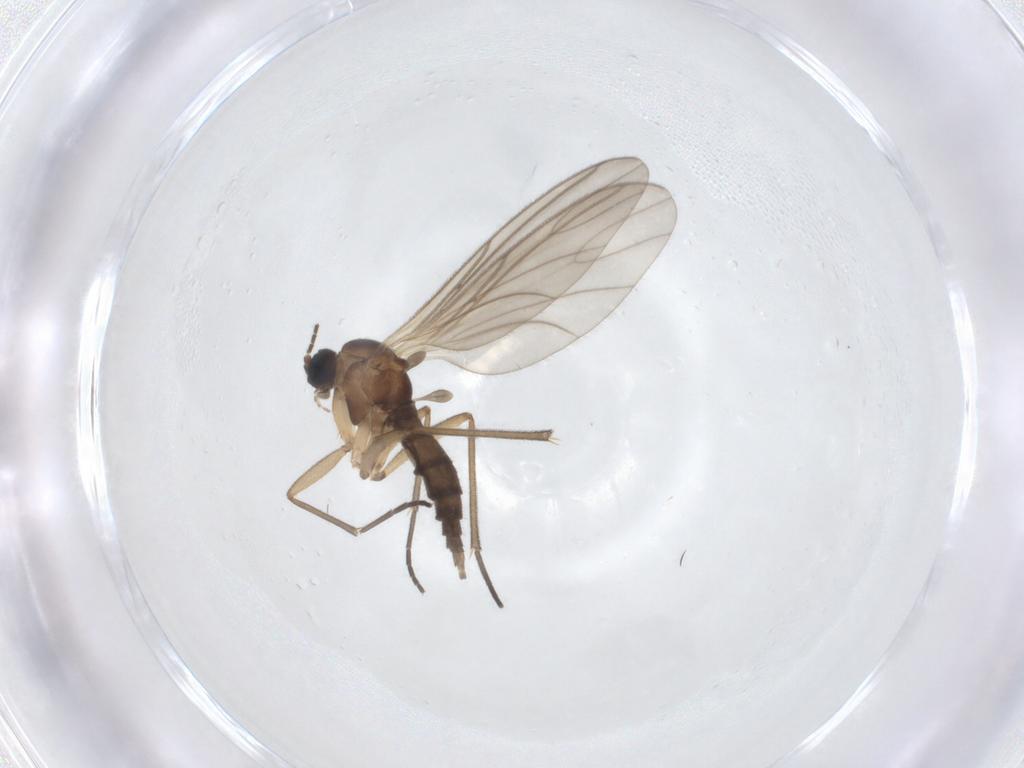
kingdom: Animalia
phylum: Arthropoda
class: Insecta
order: Diptera
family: Sciaridae
